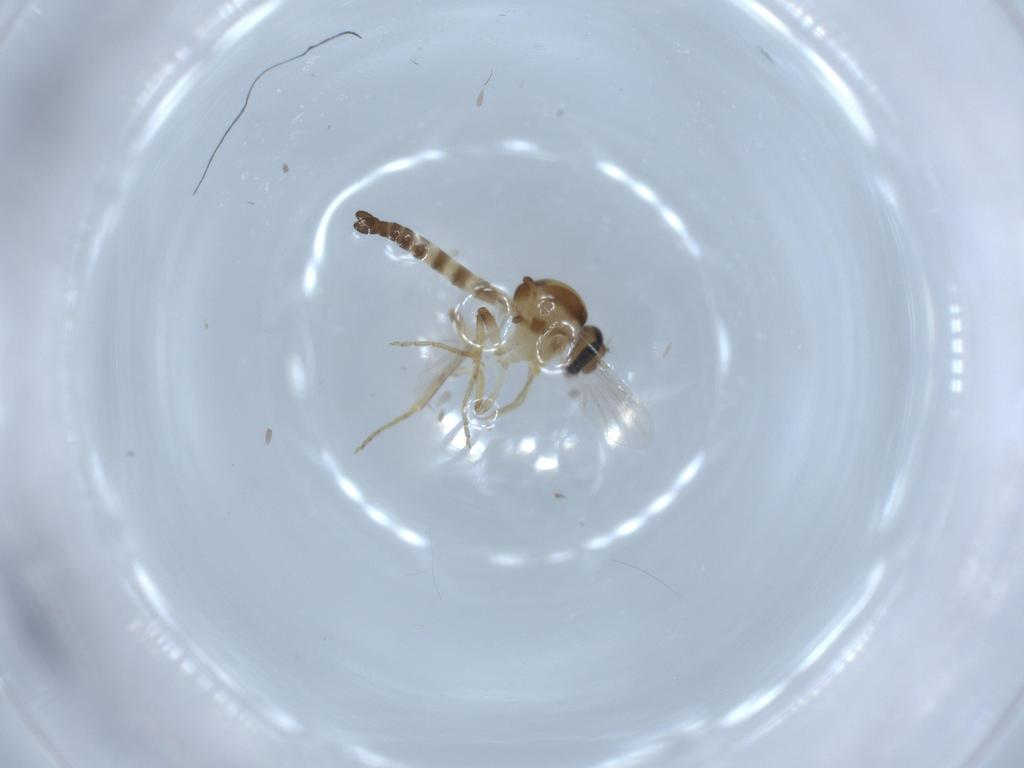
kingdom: Animalia
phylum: Arthropoda
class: Insecta
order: Diptera
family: Ceratopogonidae
